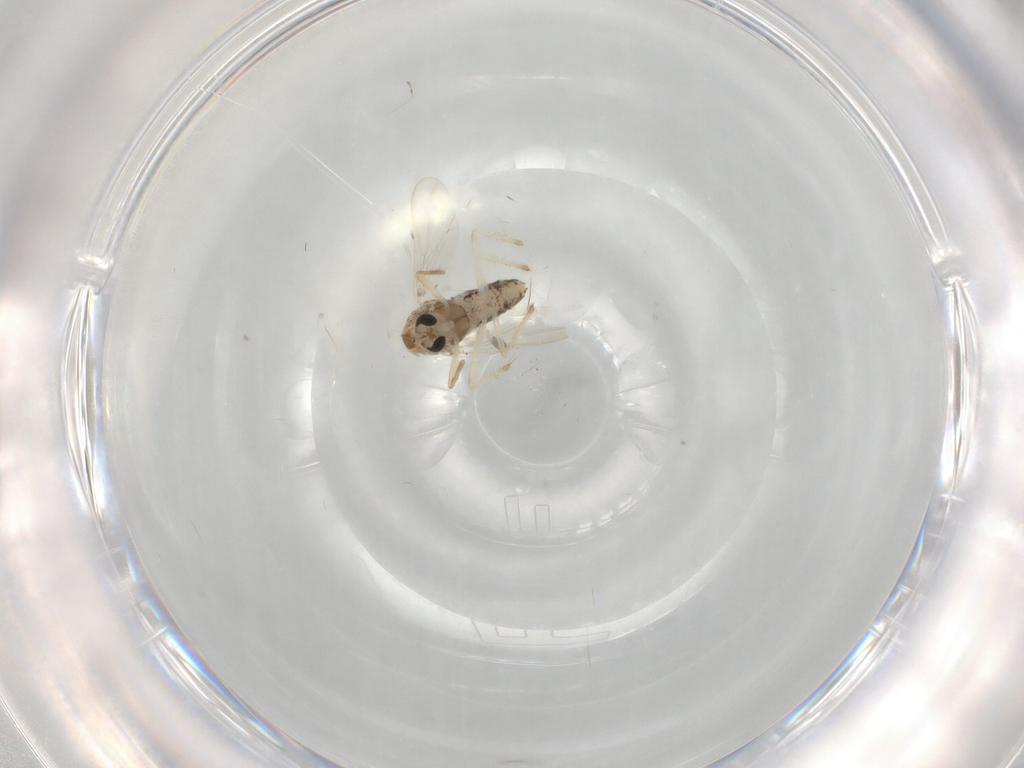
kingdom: Animalia
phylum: Arthropoda
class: Insecta
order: Diptera
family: Chironomidae
